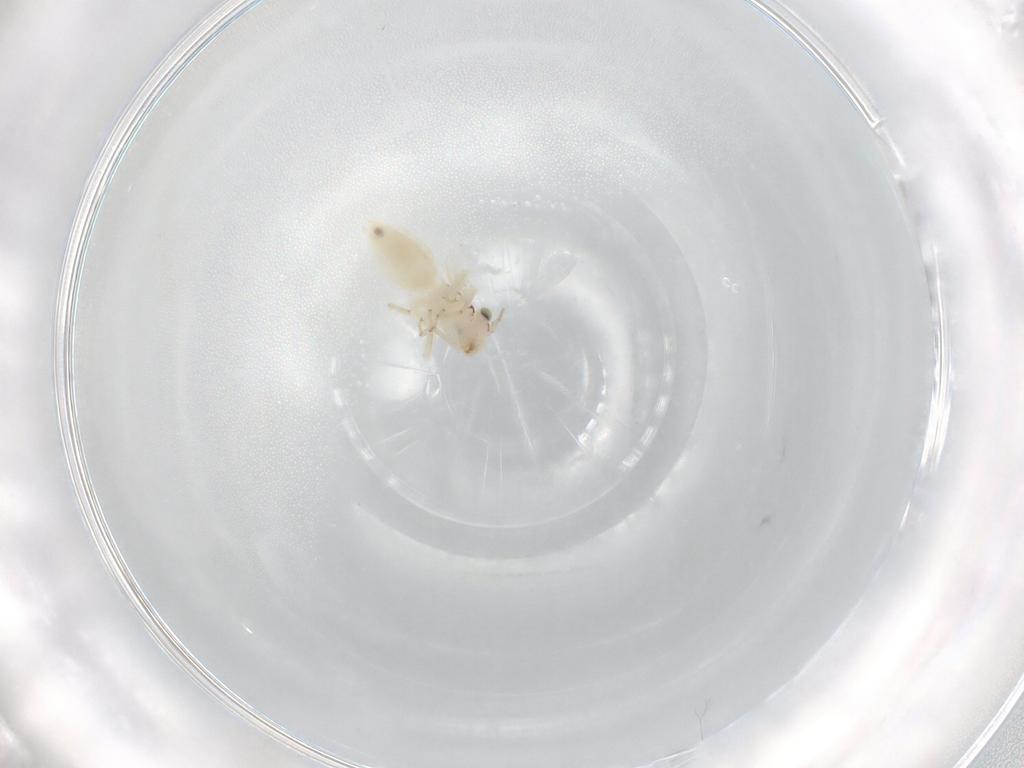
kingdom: Animalia
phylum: Arthropoda
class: Insecta
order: Psocodea
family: Lepidopsocidae
